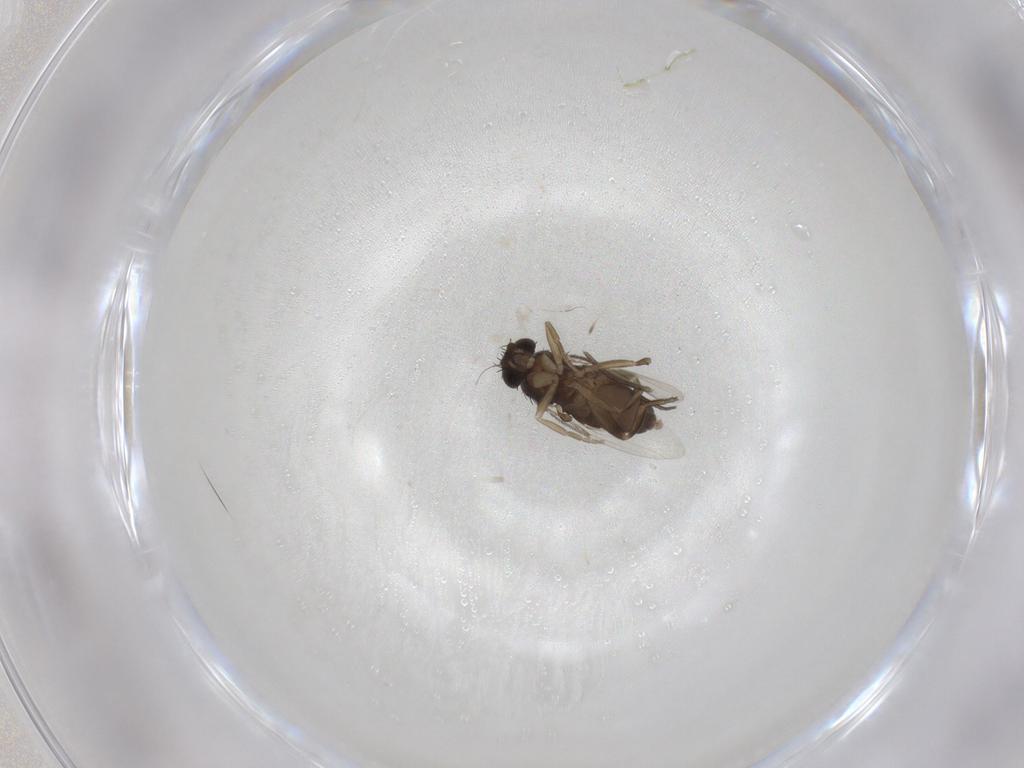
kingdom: Animalia
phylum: Arthropoda
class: Insecta
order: Diptera
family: Phoridae
